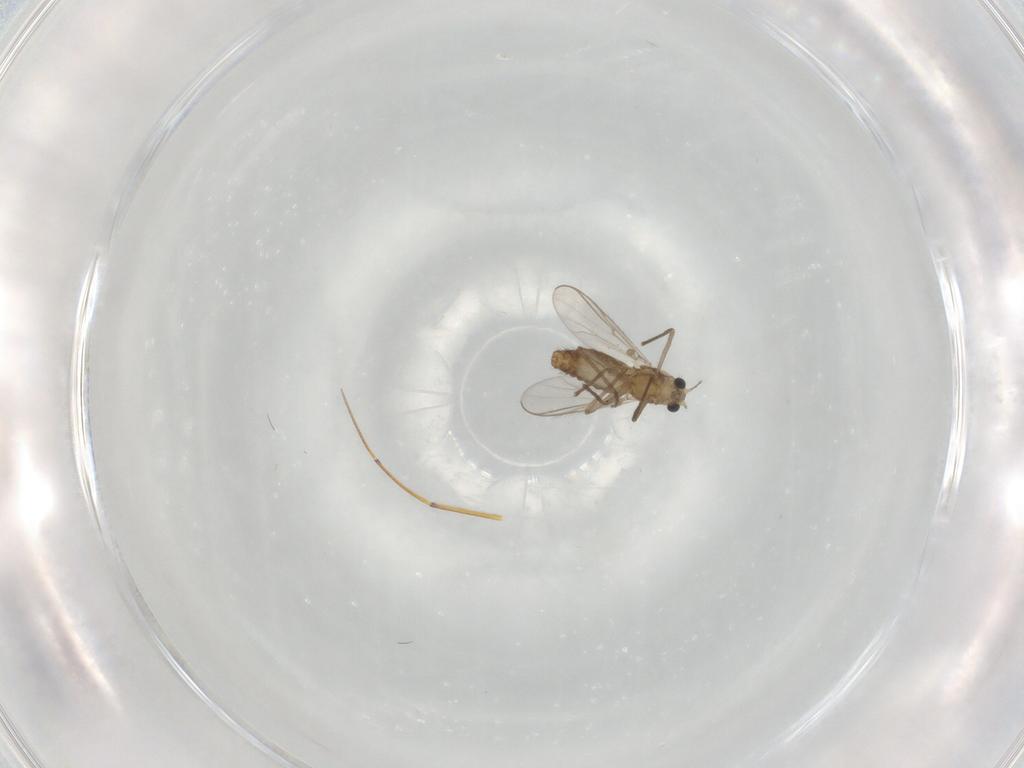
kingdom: Animalia
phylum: Arthropoda
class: Insecta
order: Diptera
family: Chironomidae
